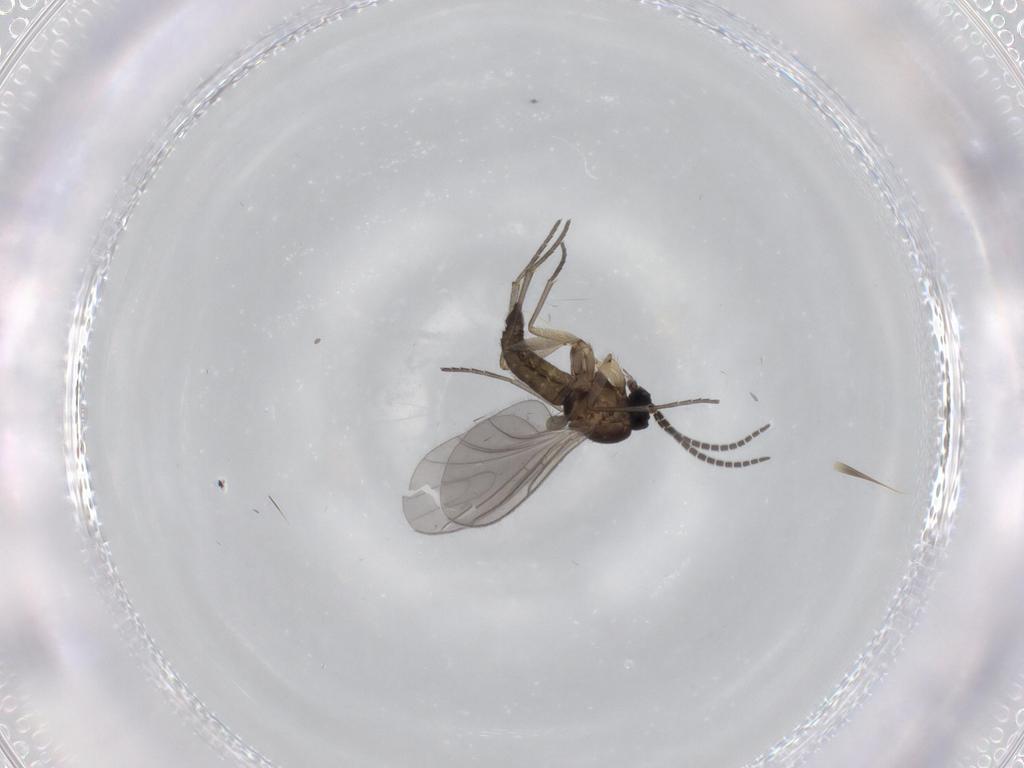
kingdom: Animalia
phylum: Arthropoda
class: Insecta
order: Diptera
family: Sciaridae
